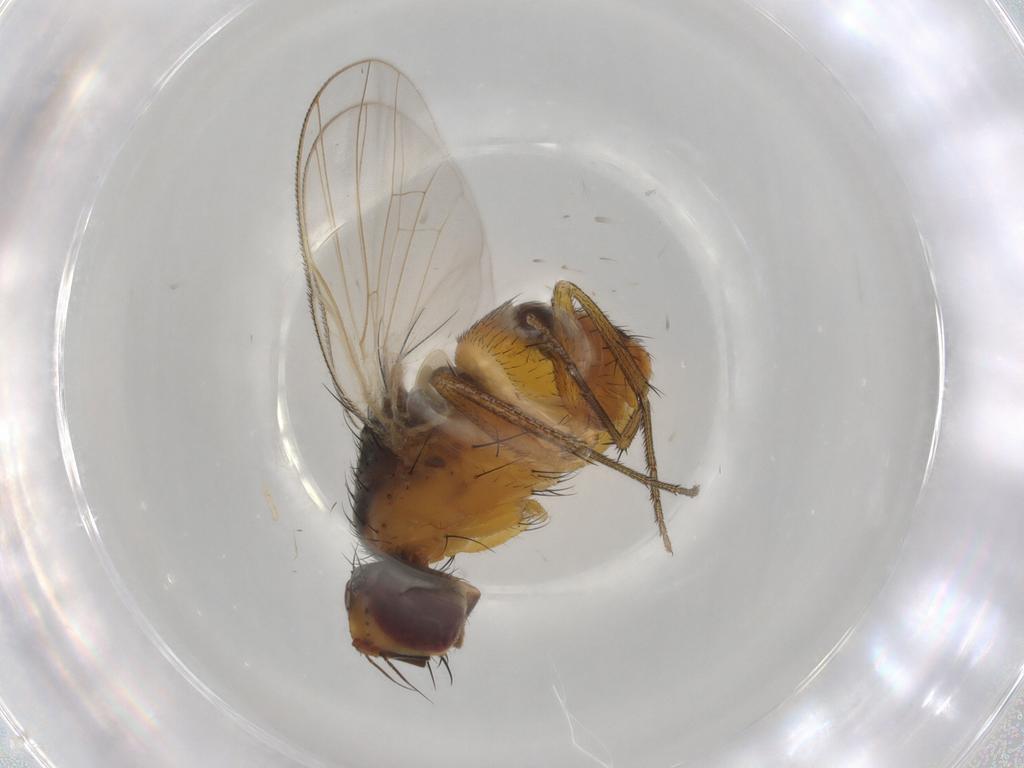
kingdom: Animalia
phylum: Arthropoda
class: Insecta
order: Diptera
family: Muscidae
